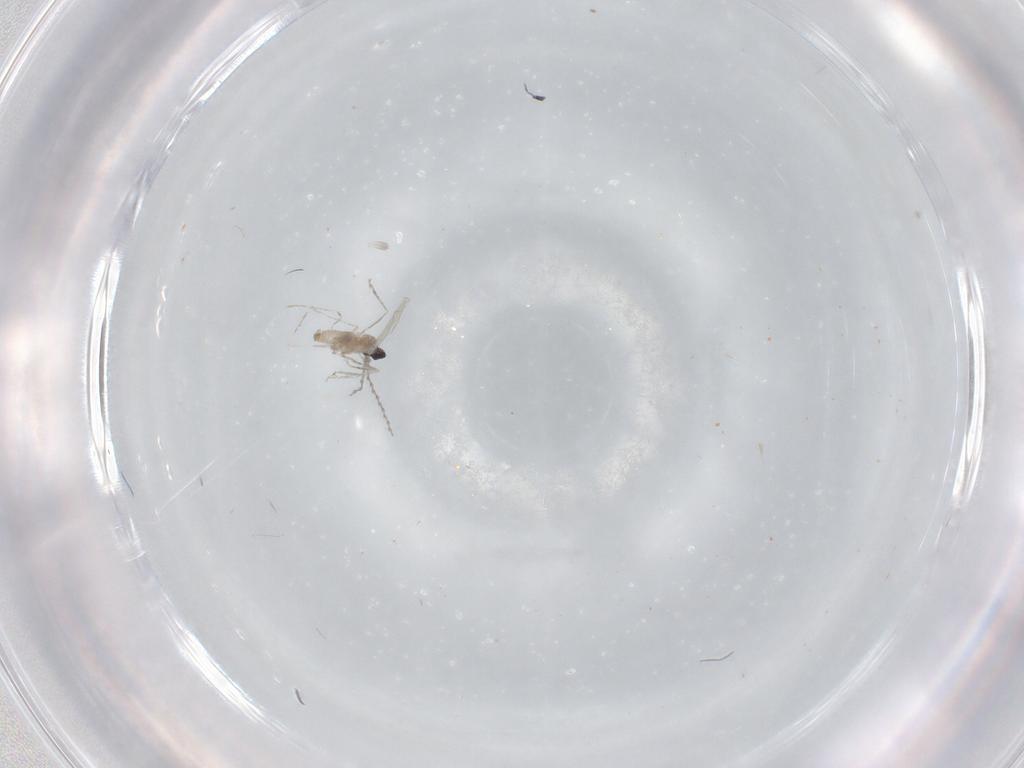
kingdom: Animalia
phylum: Arthropoda
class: Insecta
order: Diptera
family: Cecidomyiidae
